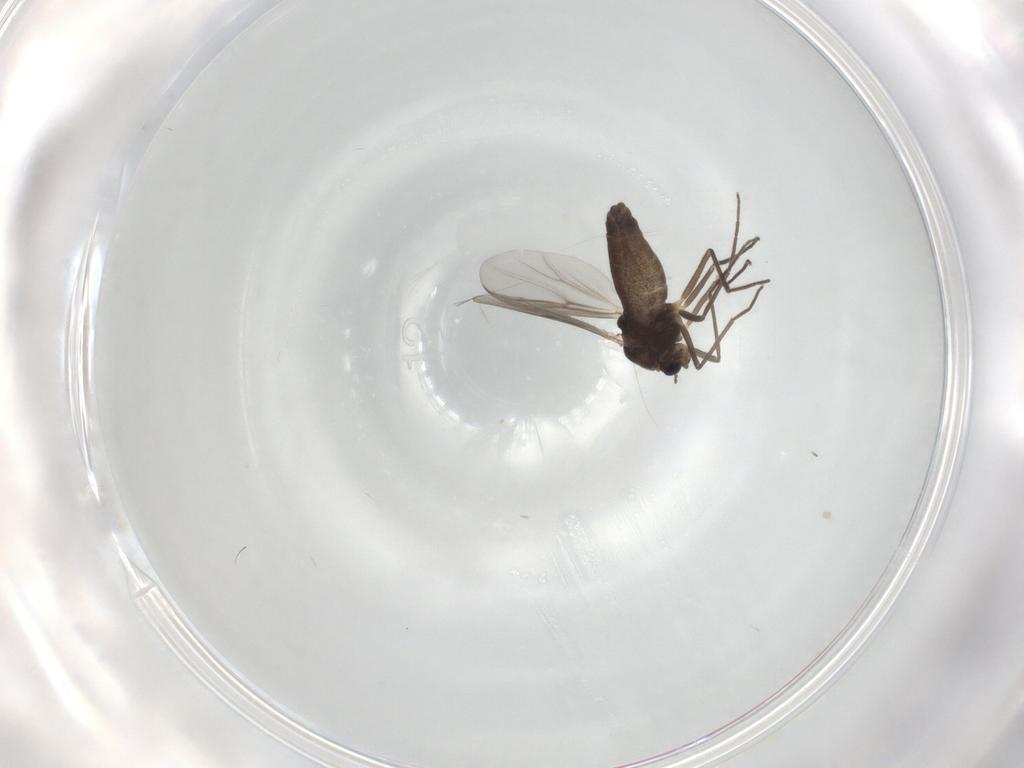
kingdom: Animalia
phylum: Arthropoda
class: Insecta
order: Diptera
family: Chironomidae
